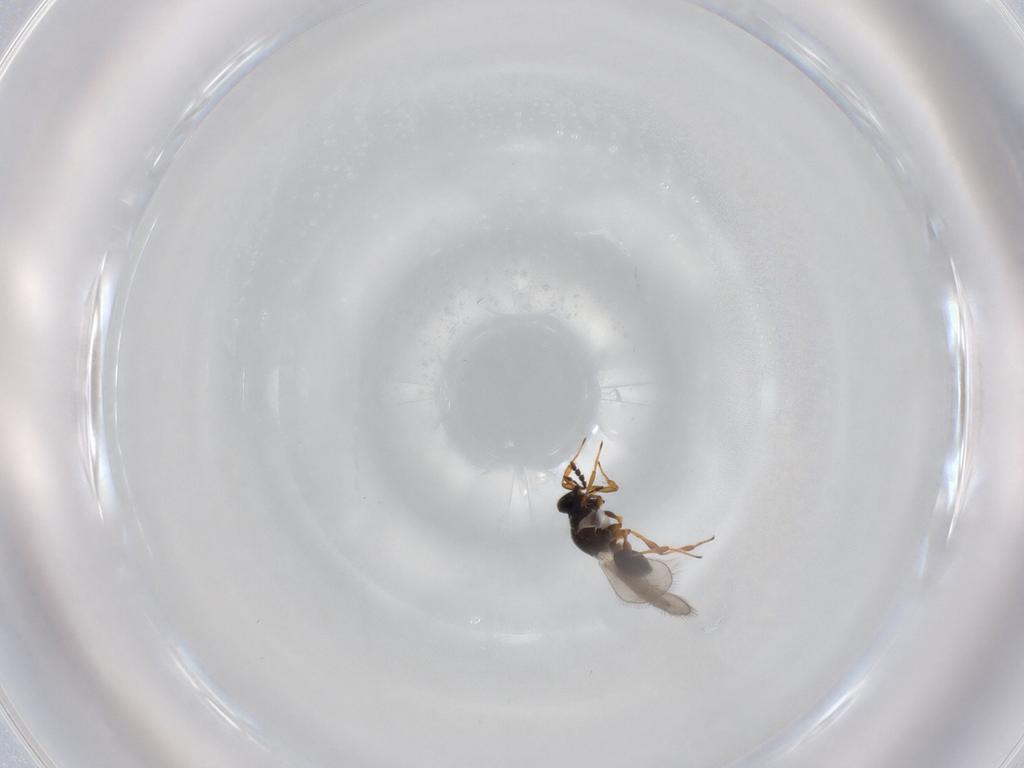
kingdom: Animalia
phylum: Arthropoda
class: Insecta
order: Hymenoptera
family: Platygastridae
